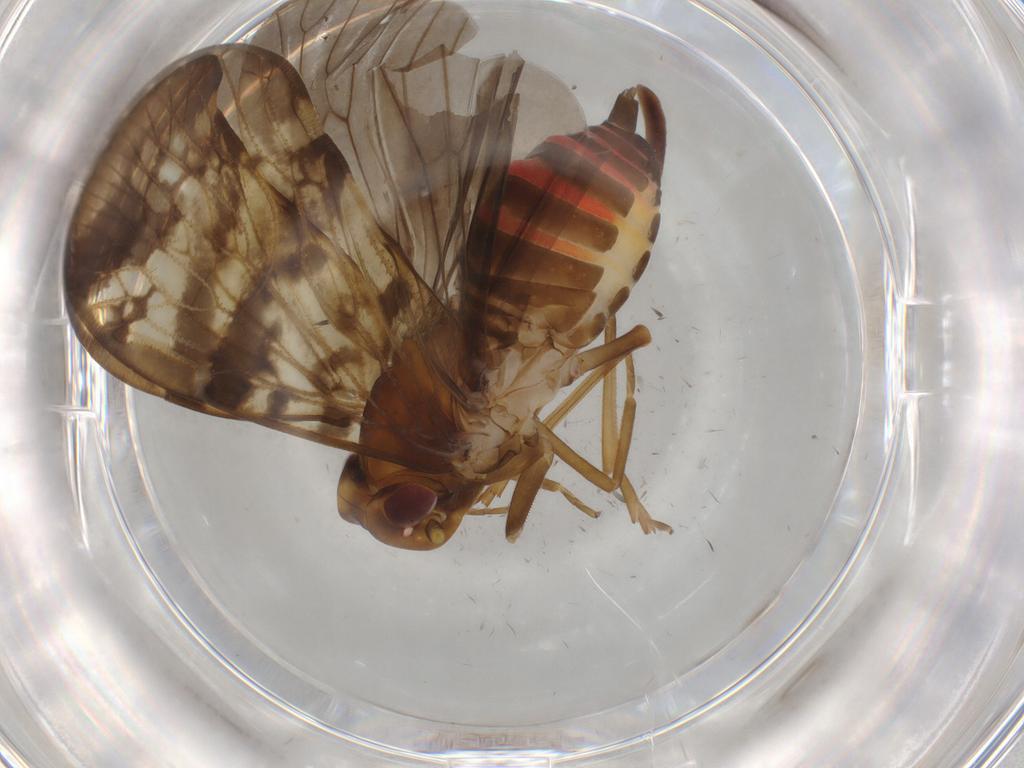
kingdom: Animalia
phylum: Arthropoda
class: Insecta
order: Hemiptera
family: Cixiidae
